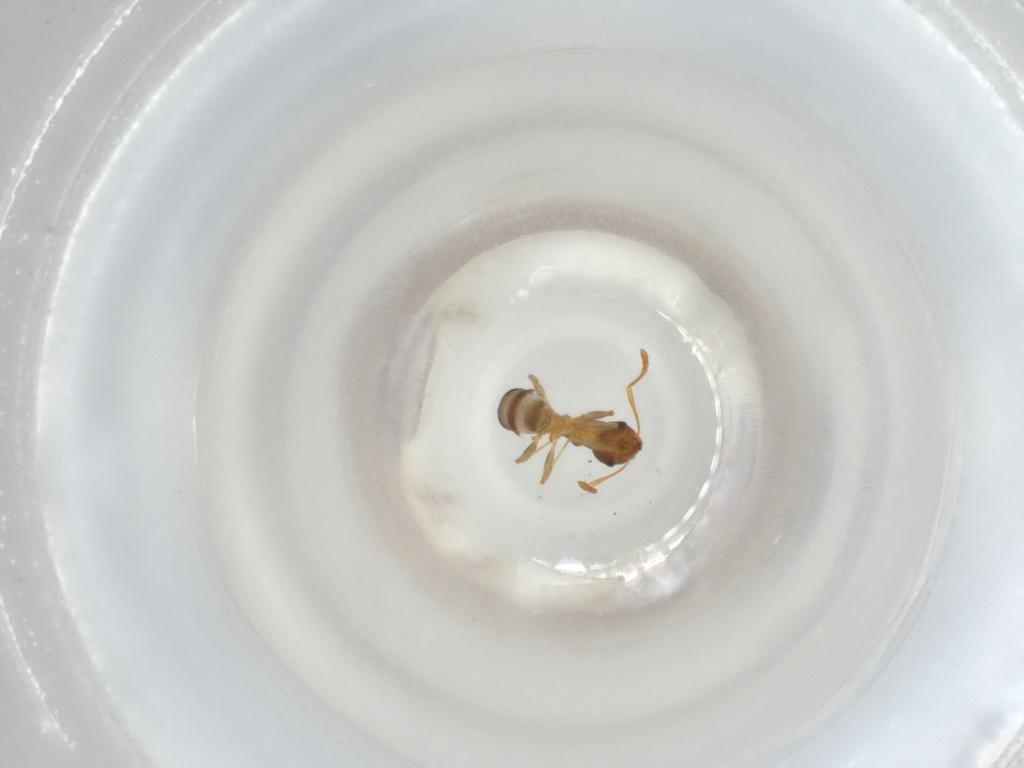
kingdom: Animalia
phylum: Arthropoda
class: Insecta
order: Hymenoptera
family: Formicidae
